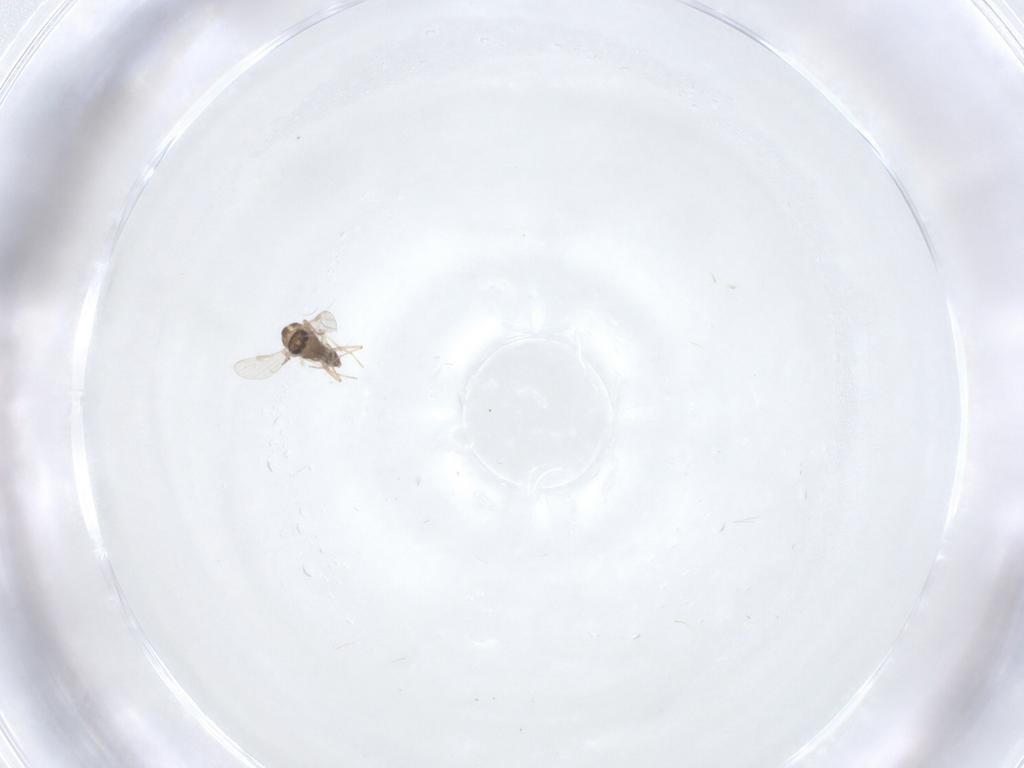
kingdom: Animalia
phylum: Arthropoda
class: Insecta
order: Diptera
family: Chironomidae
